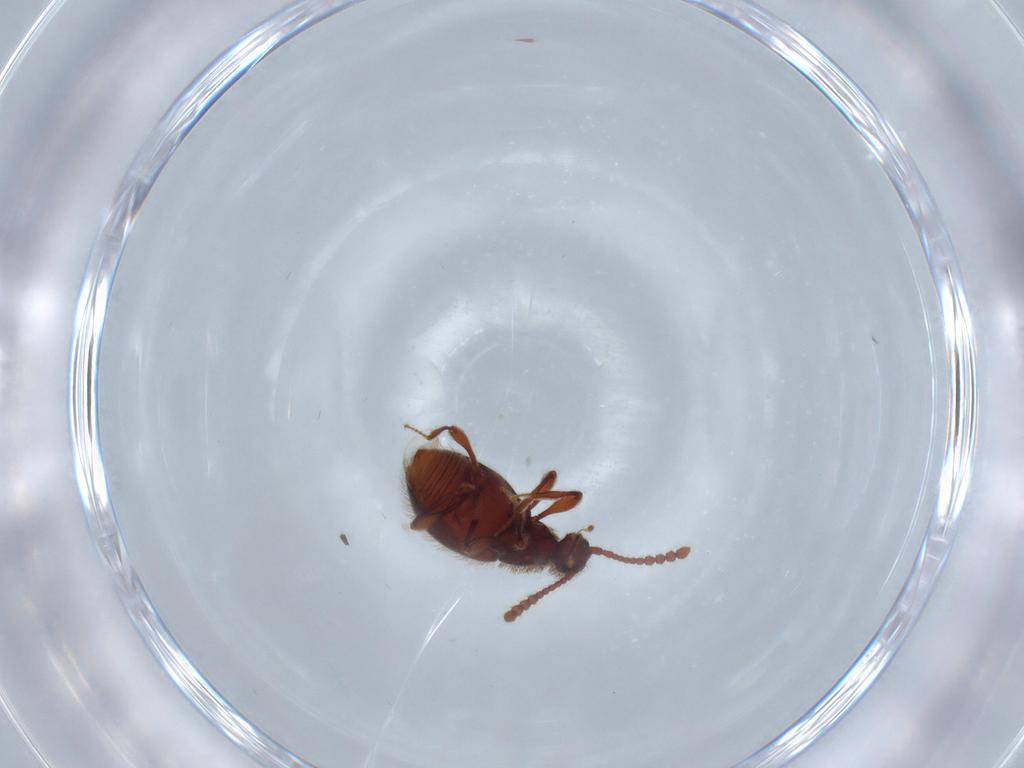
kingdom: Animalia
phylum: Arthropoda
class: Insecta
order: Coleoptera
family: Staphylinidae
